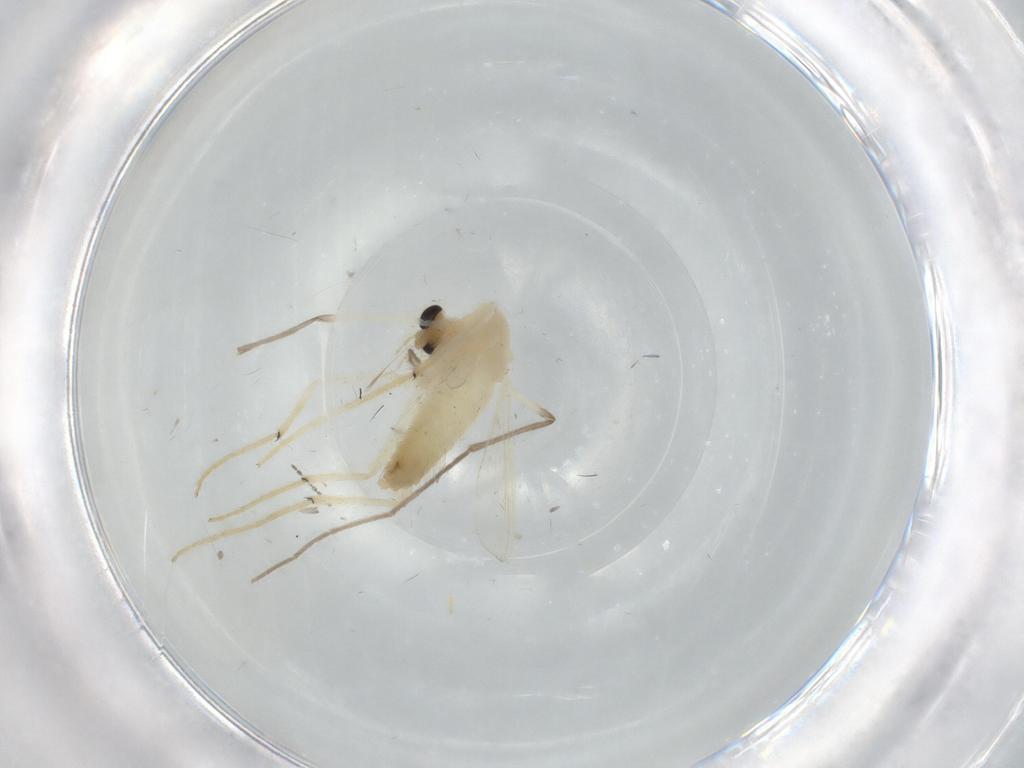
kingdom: Animalia
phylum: Arthropoda
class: Insecta
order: Diptera
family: Chironomidae
